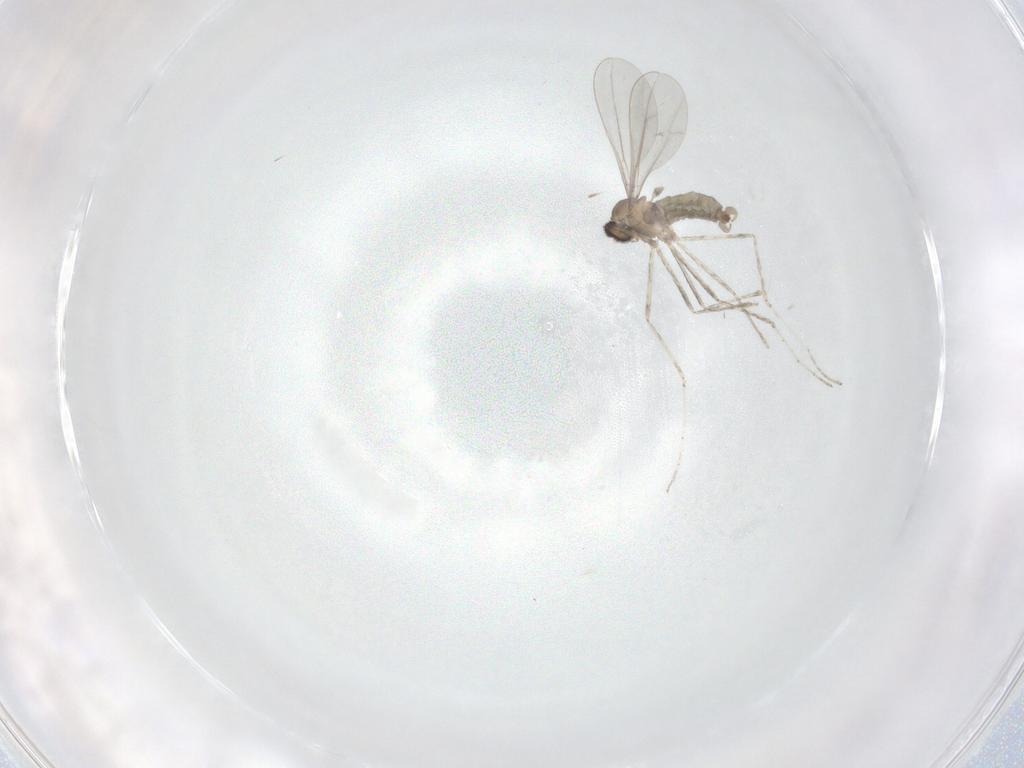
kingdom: Animalia
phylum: Arthropoda
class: Insecta
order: Diptera
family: Cecidomyiidae
